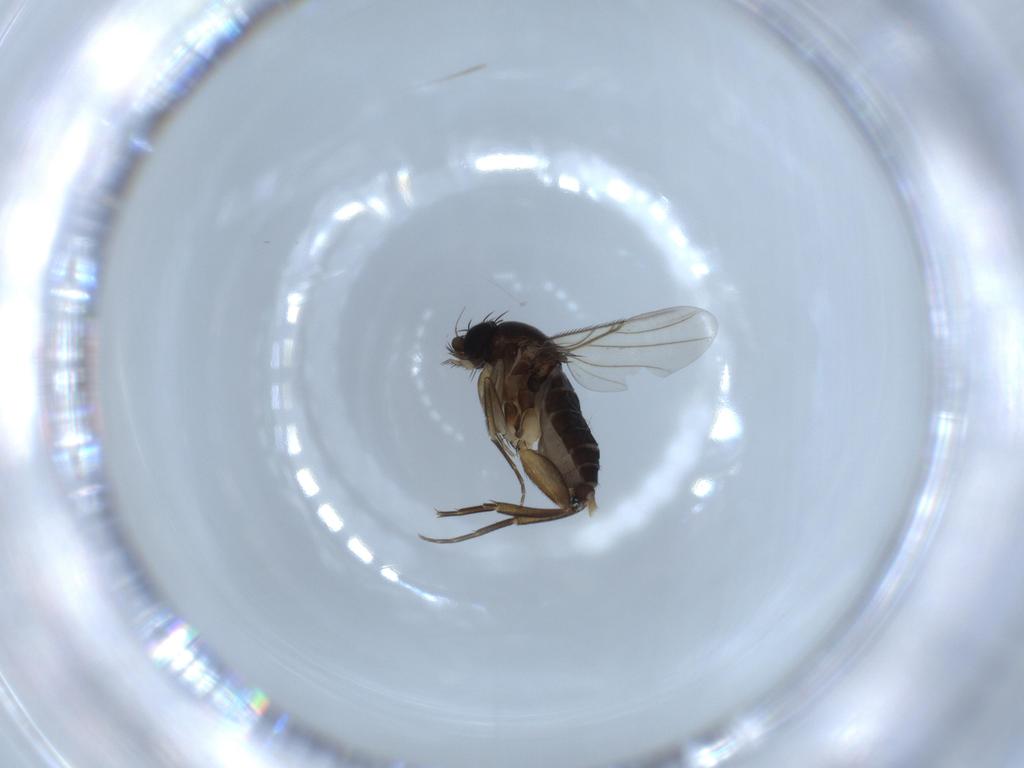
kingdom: Animalia
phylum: Arthropoda
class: Insecta
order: Diptera
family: Phoridae
